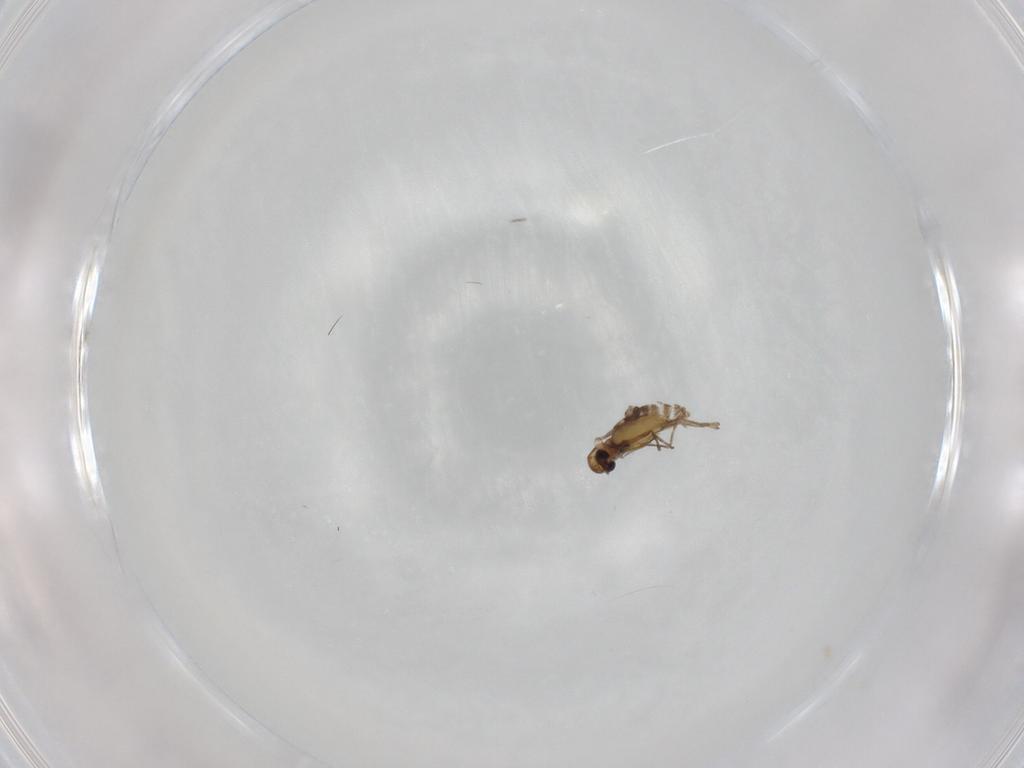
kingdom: Animalia
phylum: Arthropoda
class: Insecta
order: Diptera
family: Chironomidae
